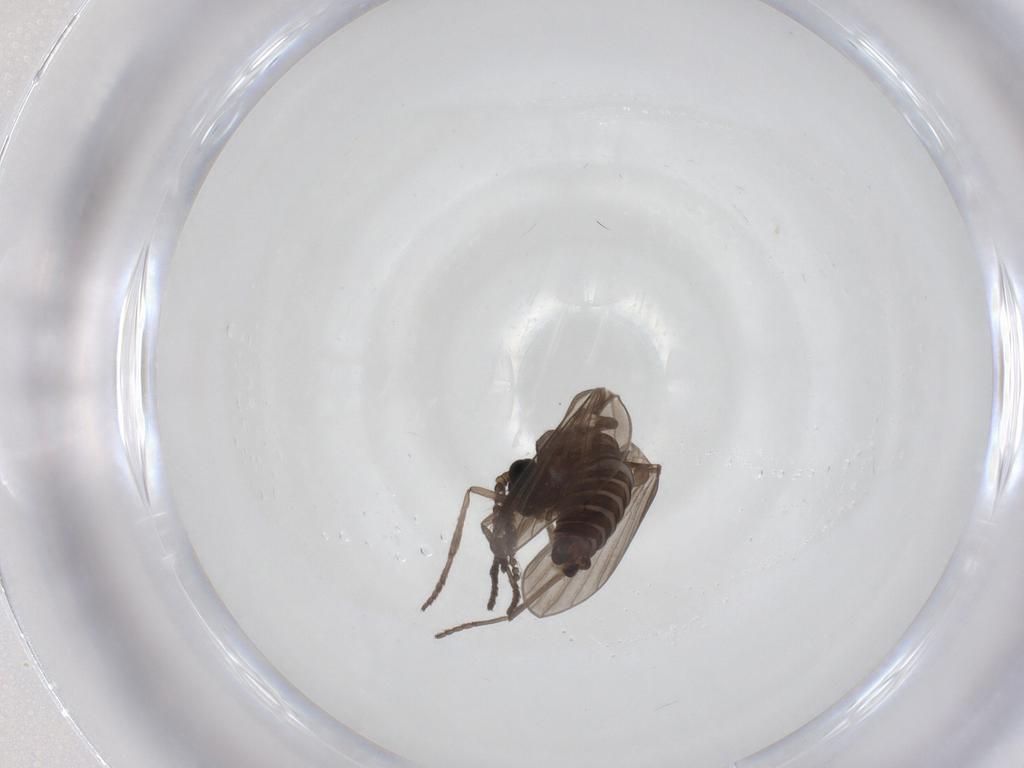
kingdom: Animalia
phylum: Arthropoda
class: Insecta
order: Diptera
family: Psychodidae
